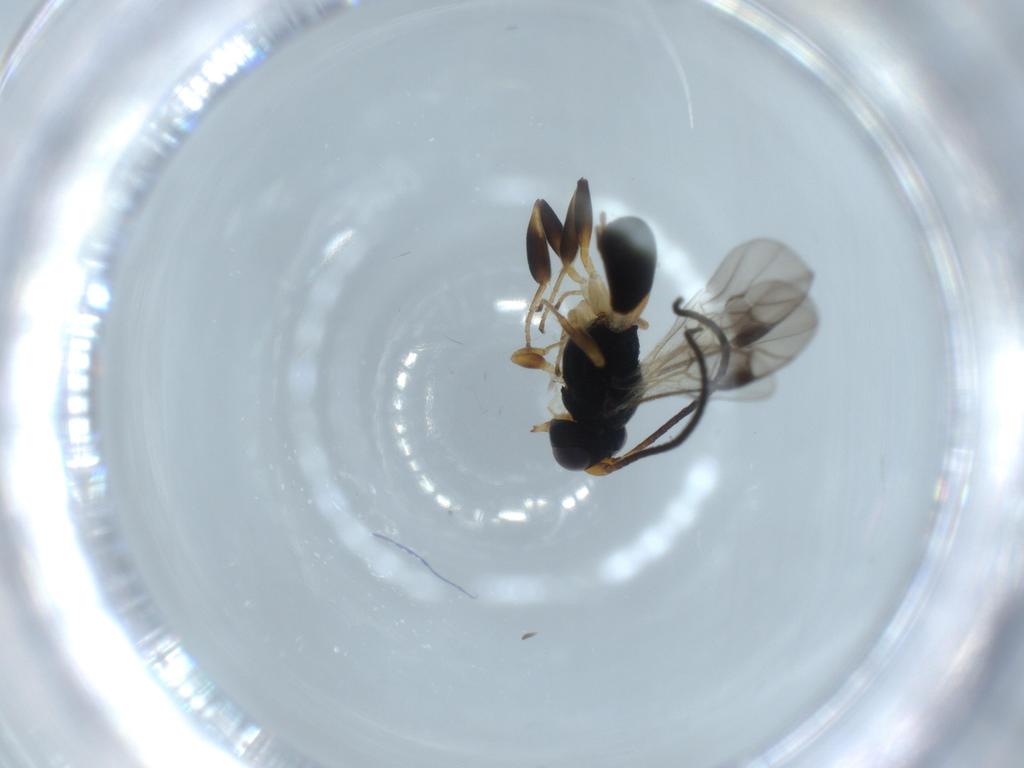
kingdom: Animalia
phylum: Arthropoda
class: Insecta
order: Hymenoptera
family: Braconidae
